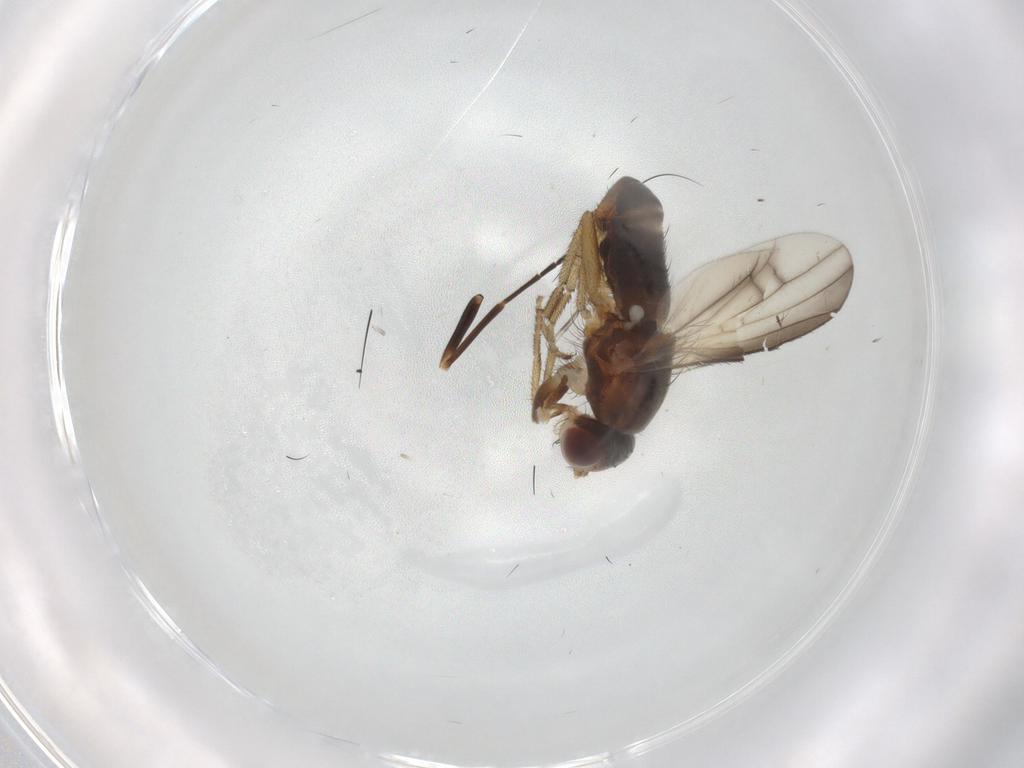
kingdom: Animalia
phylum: Arthropoda
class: Insecta
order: Diptera
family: Heleomyzidae
